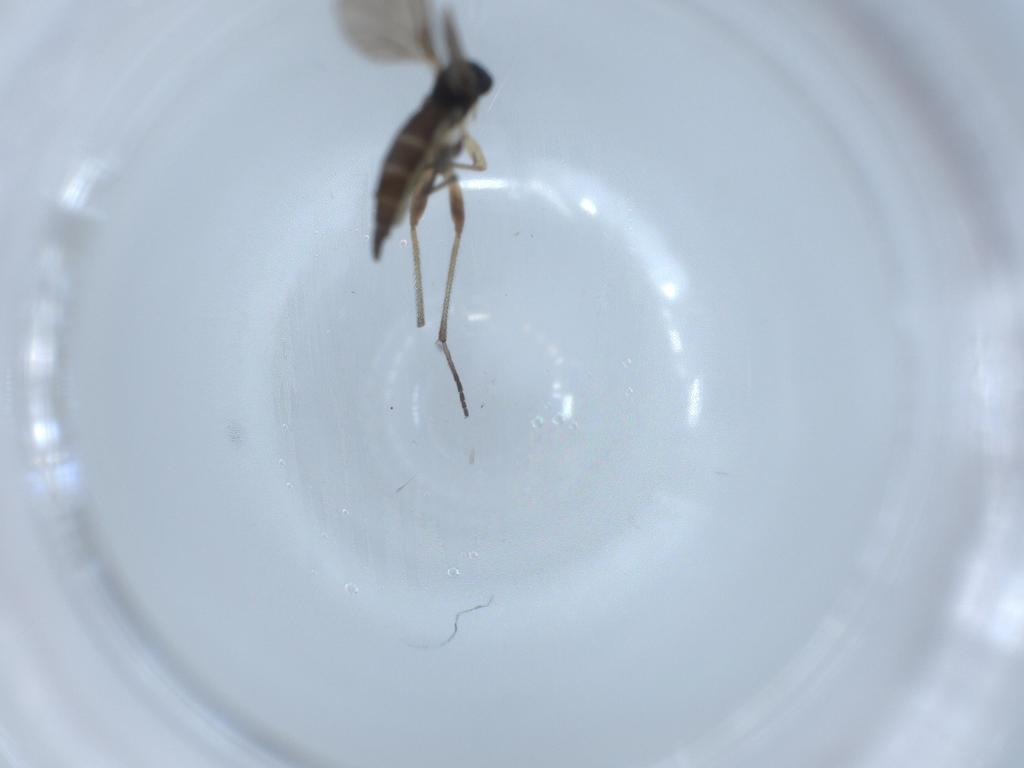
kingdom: Animalia
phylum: Arthropoda
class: Insecta
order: Diptera
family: Sciaridae
